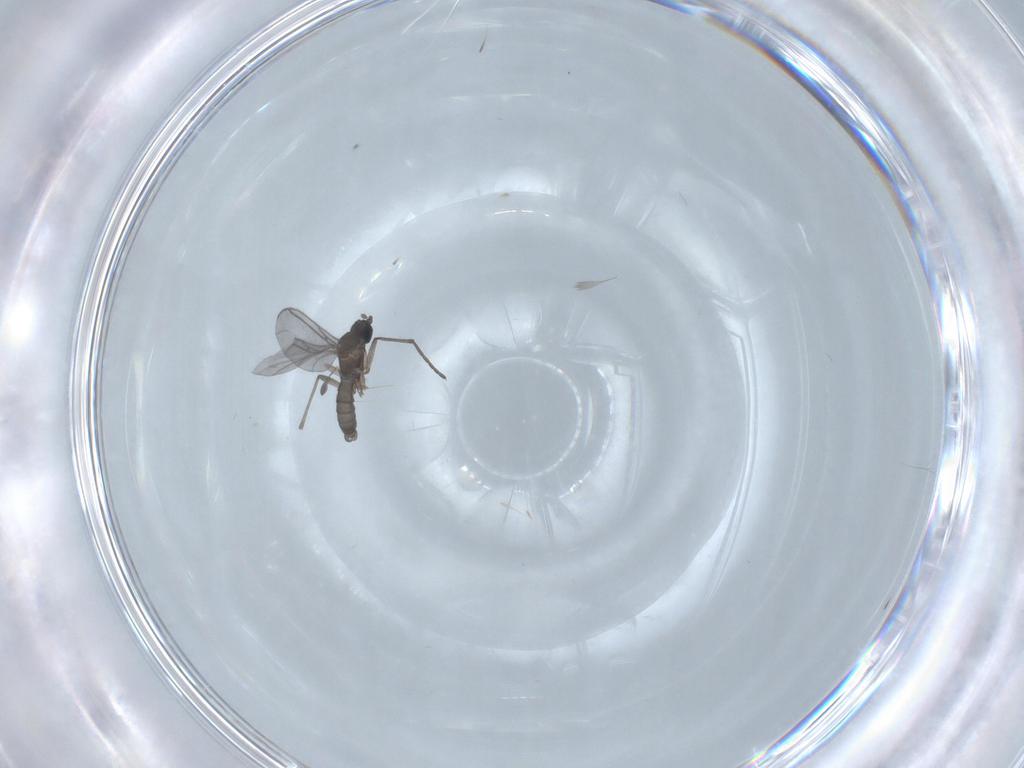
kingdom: Animalia
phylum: Arthropoda
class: Insecta
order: Diptera
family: Sciaridae
